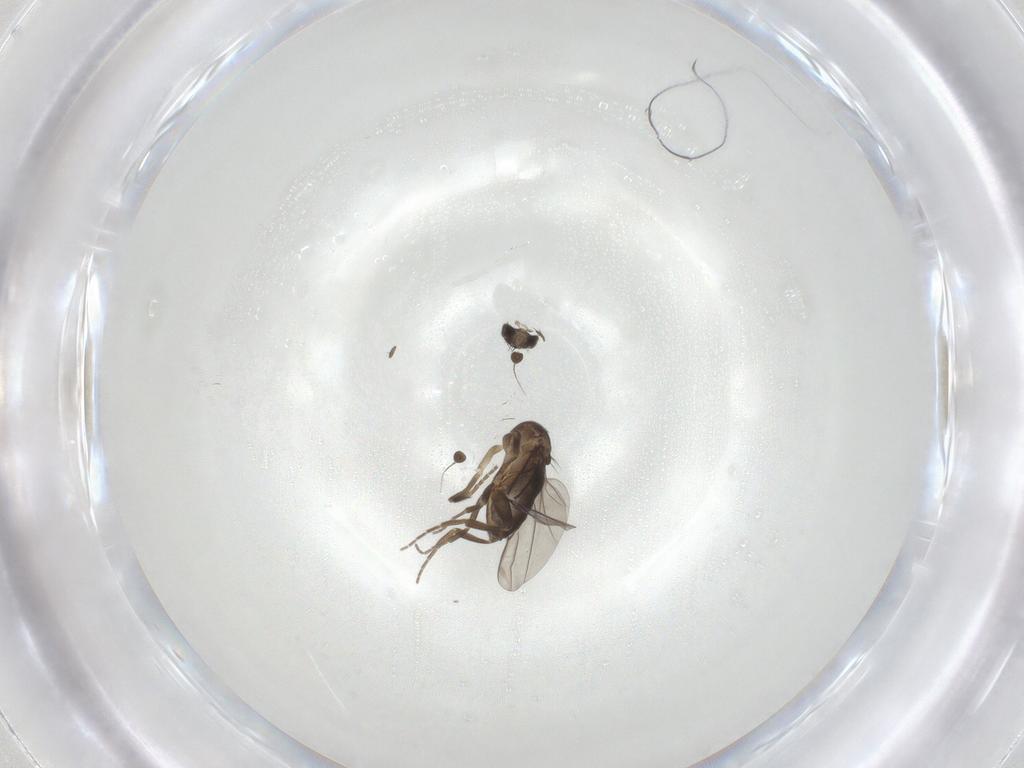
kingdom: Animalia
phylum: Arthropoda
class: Insecta
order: Diptera
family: Phoridae
